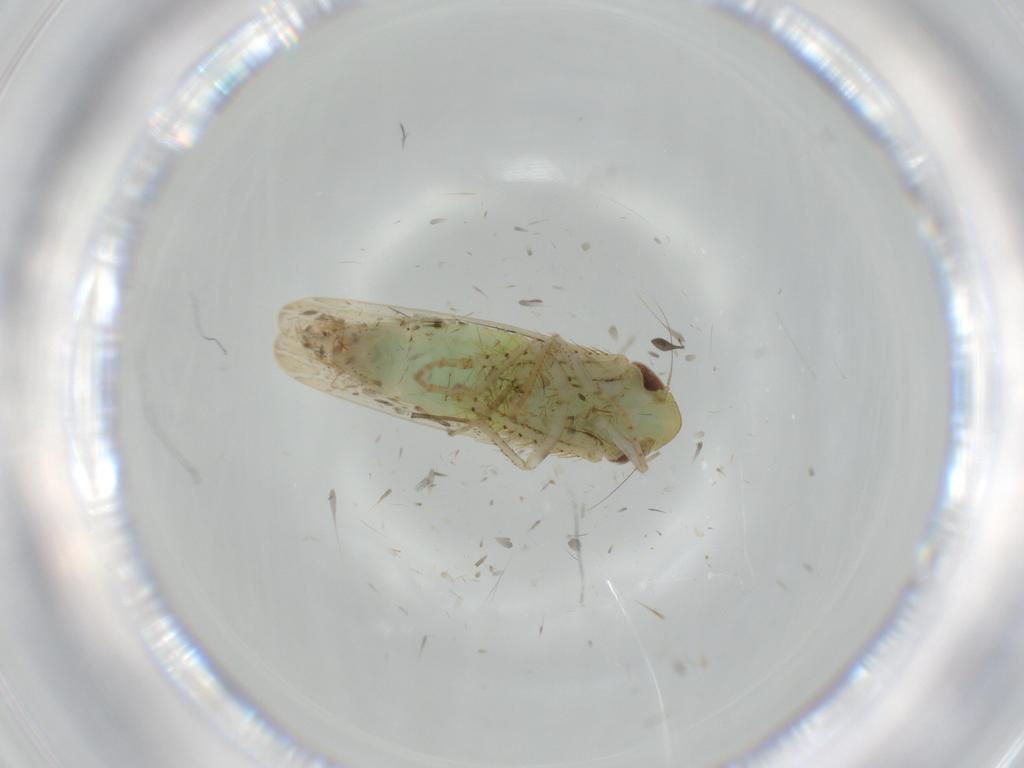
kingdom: Animalia
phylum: Arthropoda
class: Insecta
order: Hemiptera
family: Cicadellidae
